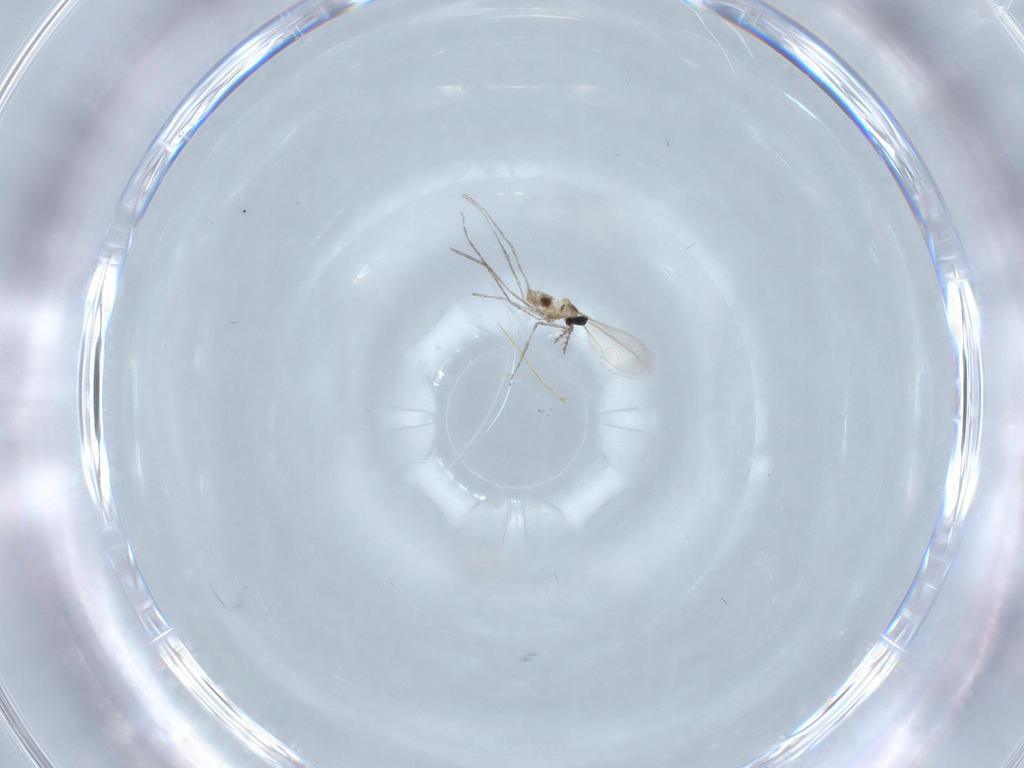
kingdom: Animalia
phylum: Arthropoda
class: Insecta
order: Diptera
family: Cecidomyiidae
